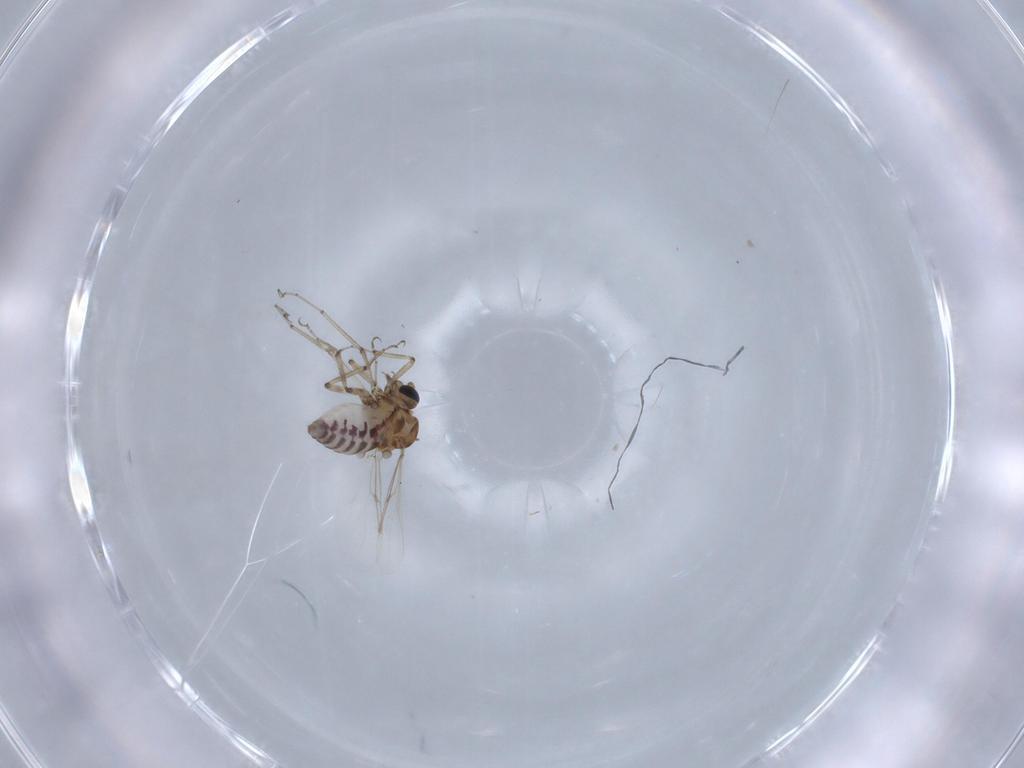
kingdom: Animalia
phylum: Arthropoda
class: Insecta
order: Diptera
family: Ceratopogonidae
